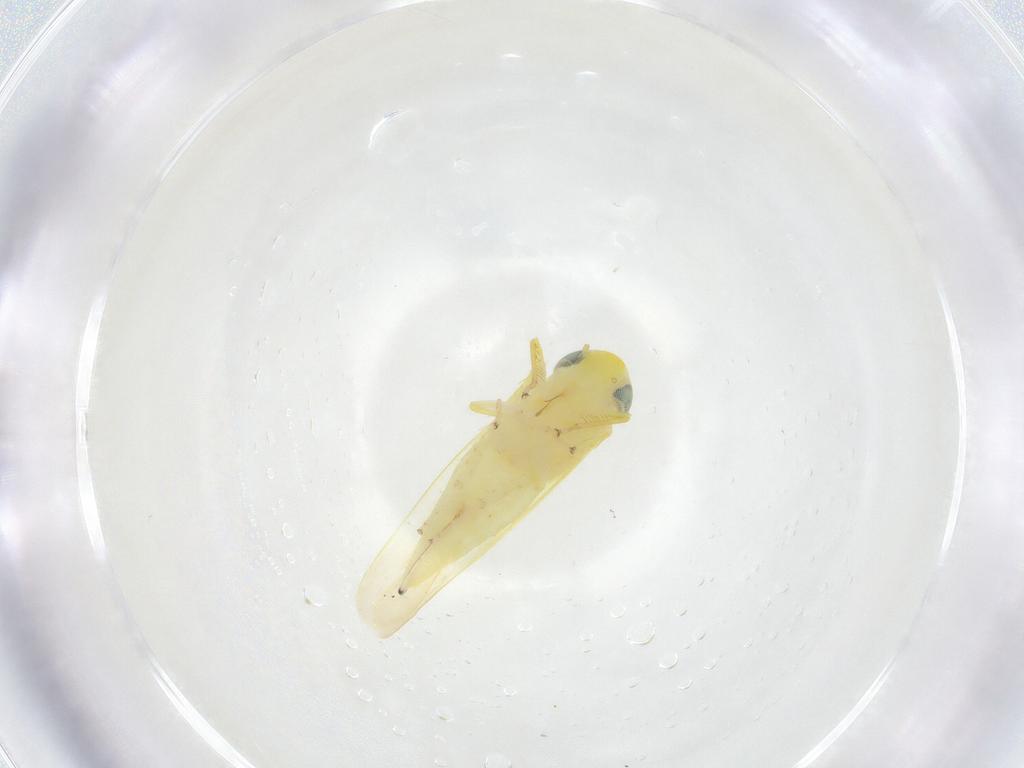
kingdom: Animalia
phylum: Arthropoda
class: Insecta
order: Hemiptera
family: Cicadellidae
